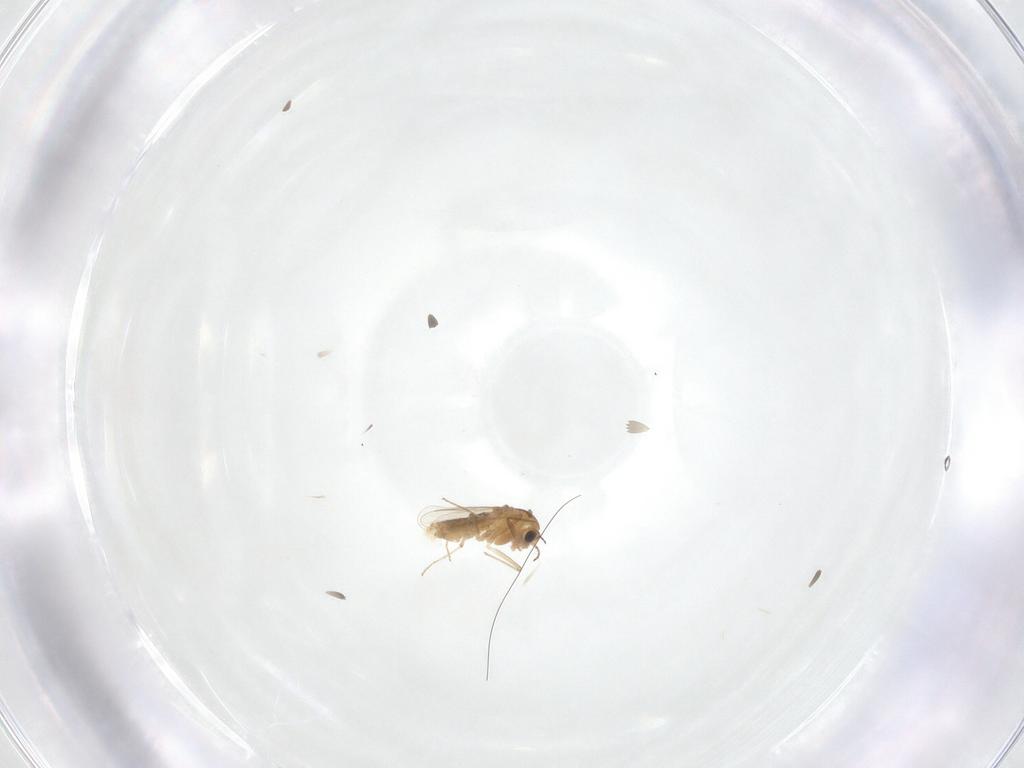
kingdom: Animalia
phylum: Arthropoda
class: Insecta
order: Diptera
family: Chironomidae
